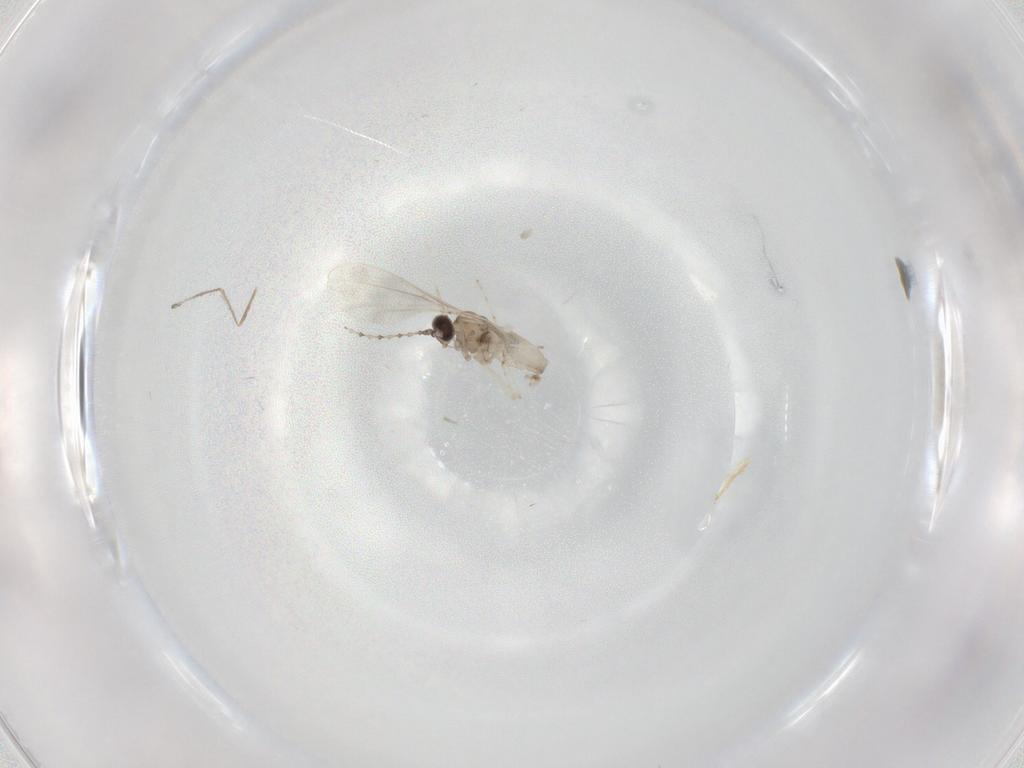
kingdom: Animalia
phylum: Arthropoda
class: Insecta
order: Diptera
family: Cecidomyiidae
